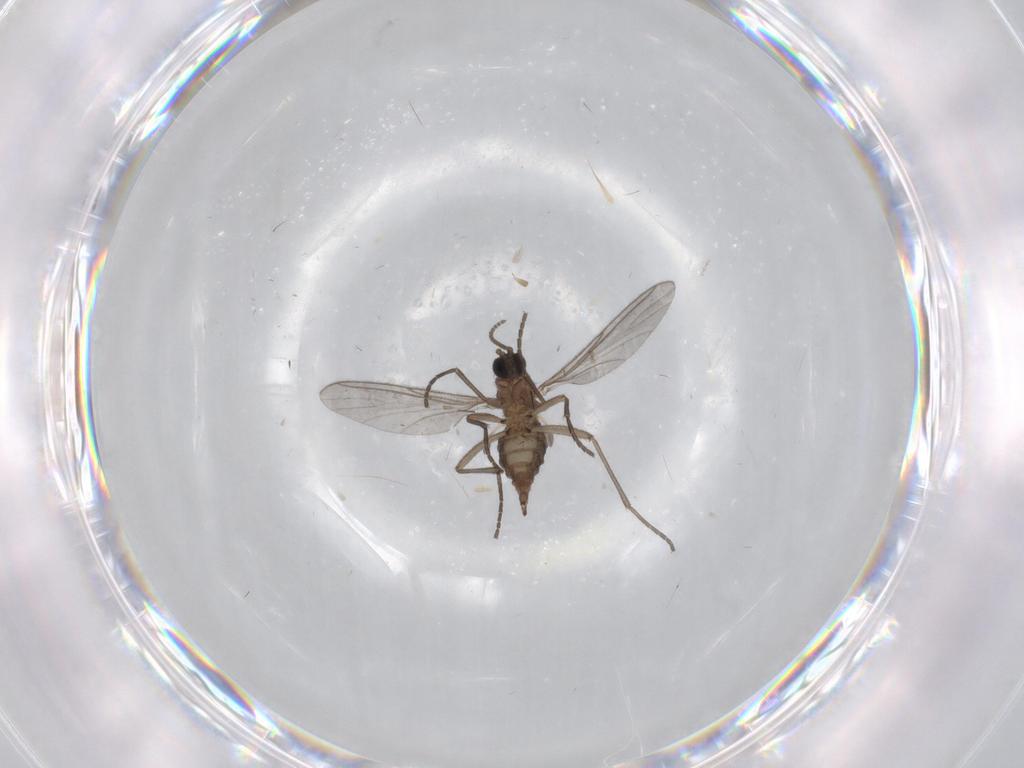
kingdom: Animalia
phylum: Arthropoda
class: Insecta
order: Diptera
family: Sciaridae
